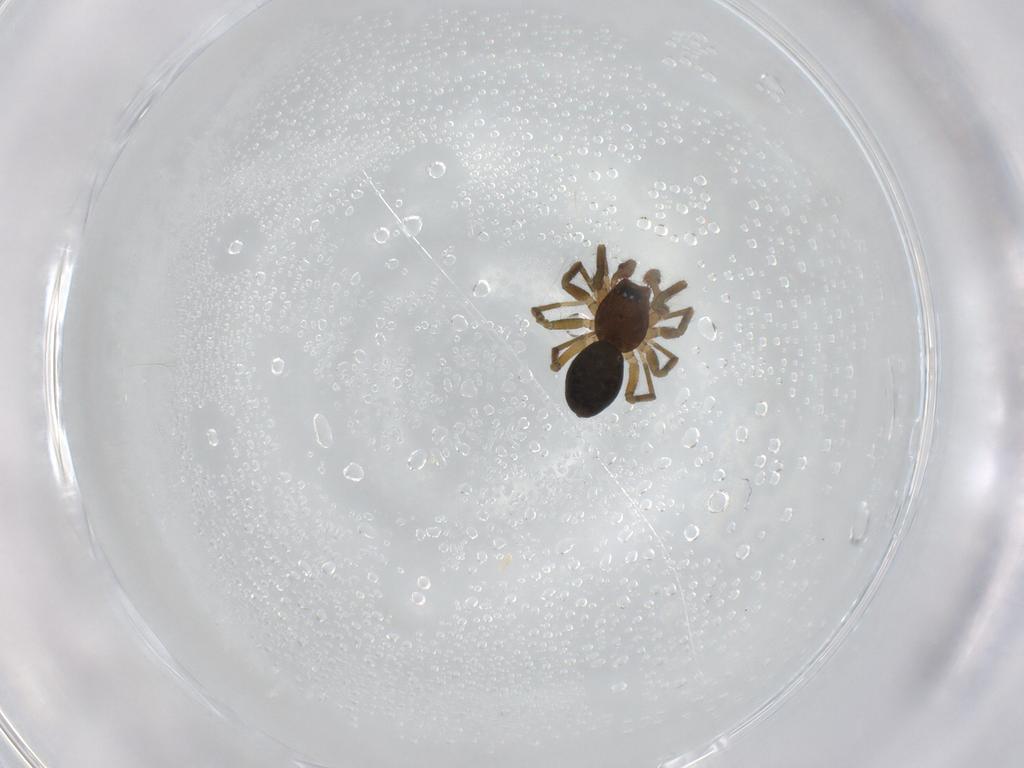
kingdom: Animalia
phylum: Arthropoda
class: Arachnida
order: Araneae
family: Linyphiidae
